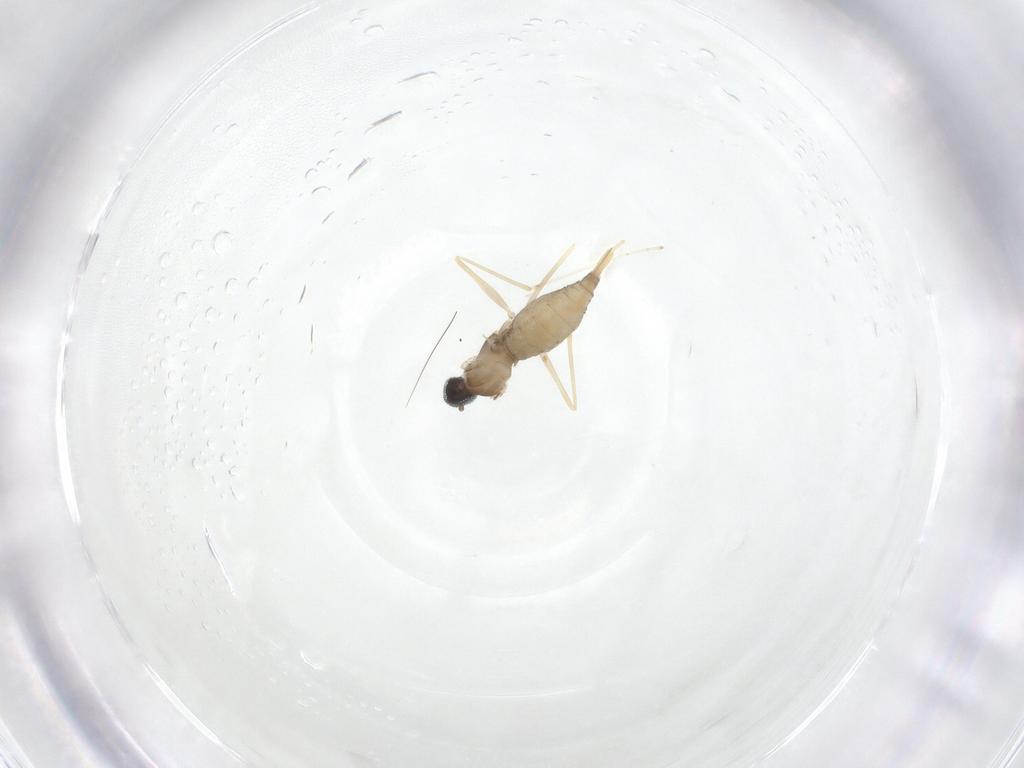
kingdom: Animalia
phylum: Arthropoda
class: Insecta
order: Diptera
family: Cecidomyiidae
